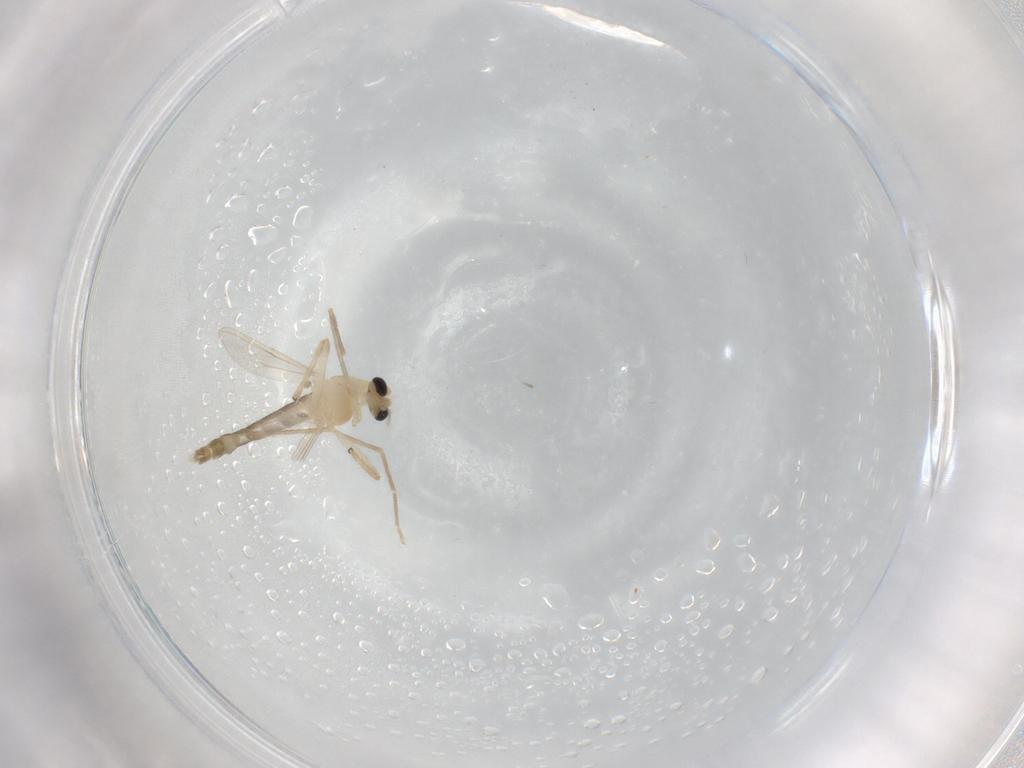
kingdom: Animalia
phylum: Arthropoda
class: Insecta
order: Diptera
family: Chironomidae
